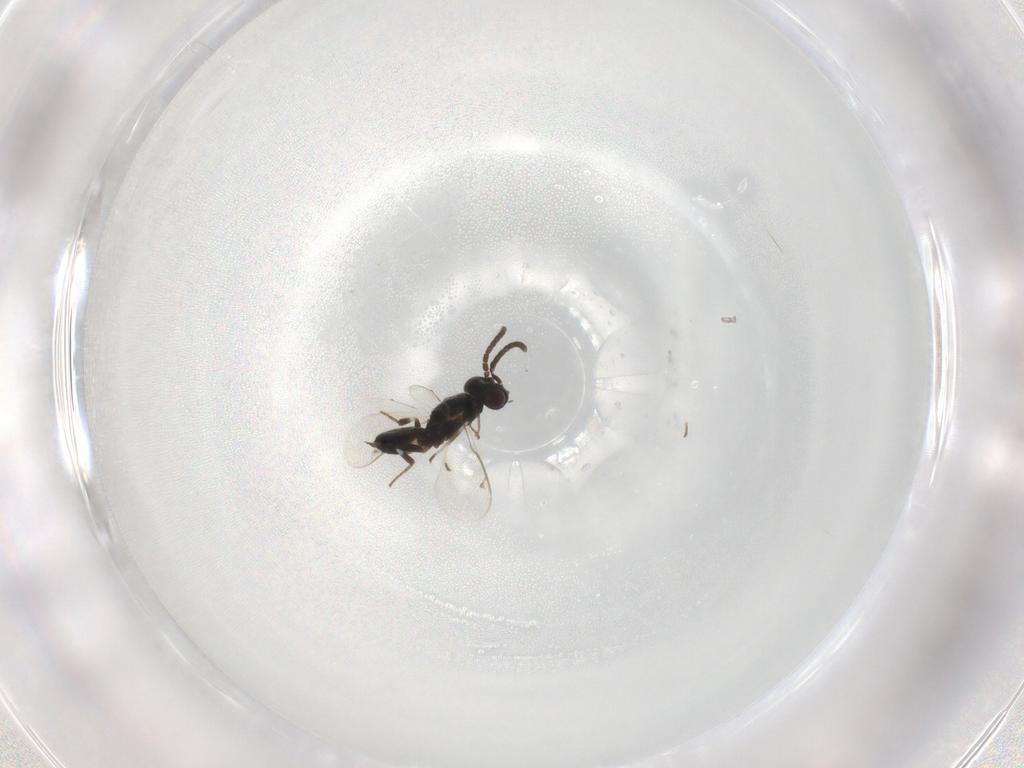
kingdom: Animalia
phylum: Arthropoda
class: Insecta
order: Hymenoptera
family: Eupelmidae
